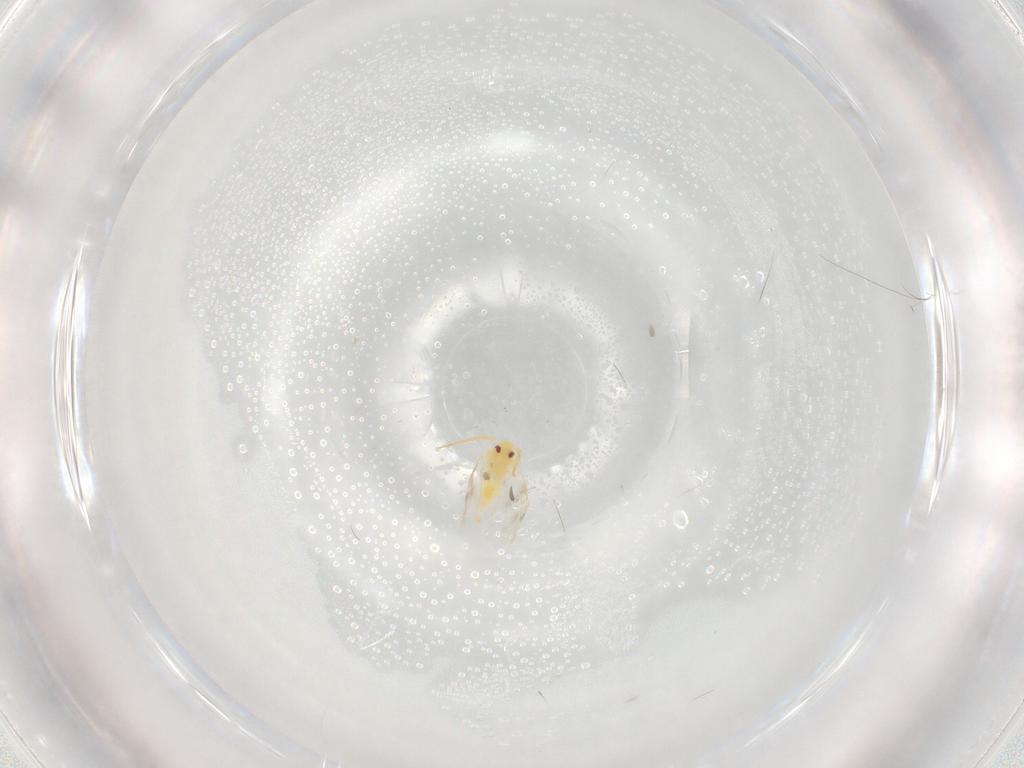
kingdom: Animalia
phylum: Arthropoda
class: Insecta
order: Hemiptera
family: Aleyrodidae
